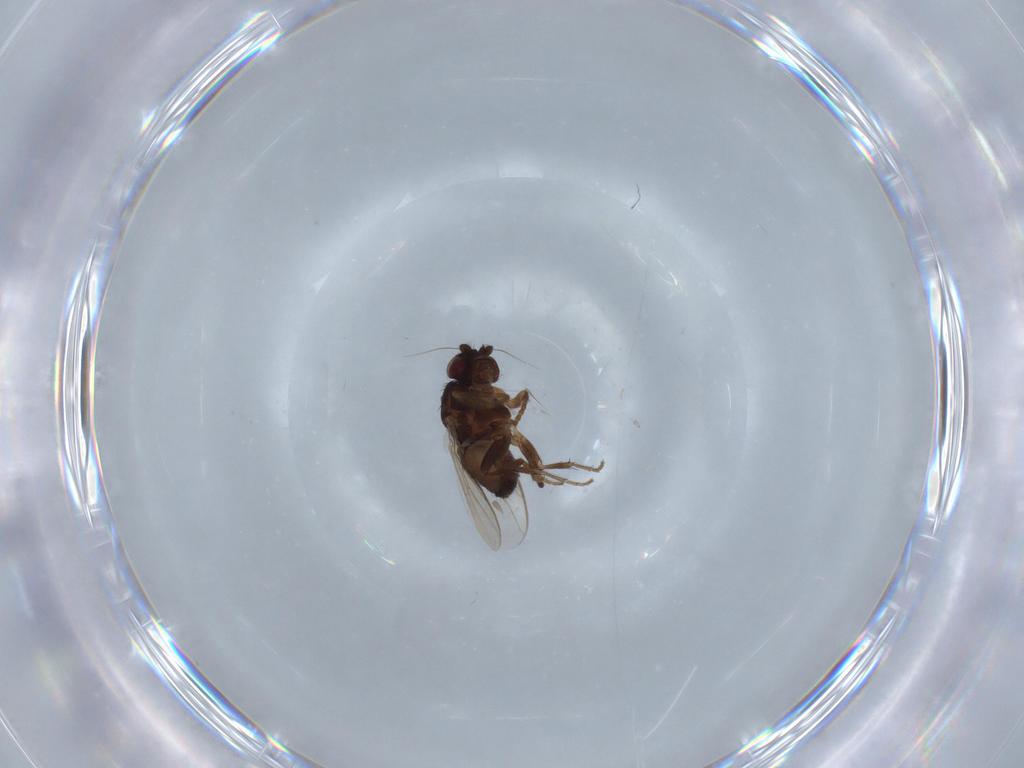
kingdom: Animalia
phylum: Arthropoda
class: Insecta
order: Diptera
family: Sphaeroceridae
